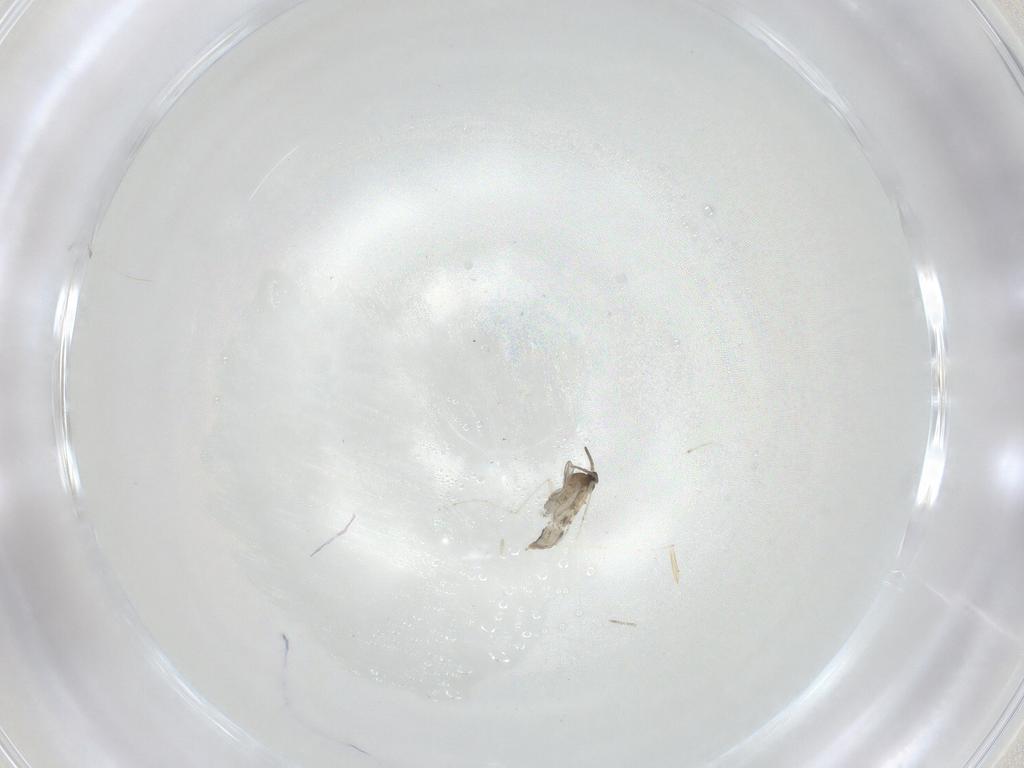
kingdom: Animalia
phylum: Arthropoda
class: Insecta
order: Diptera
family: Cecidomyiidae
